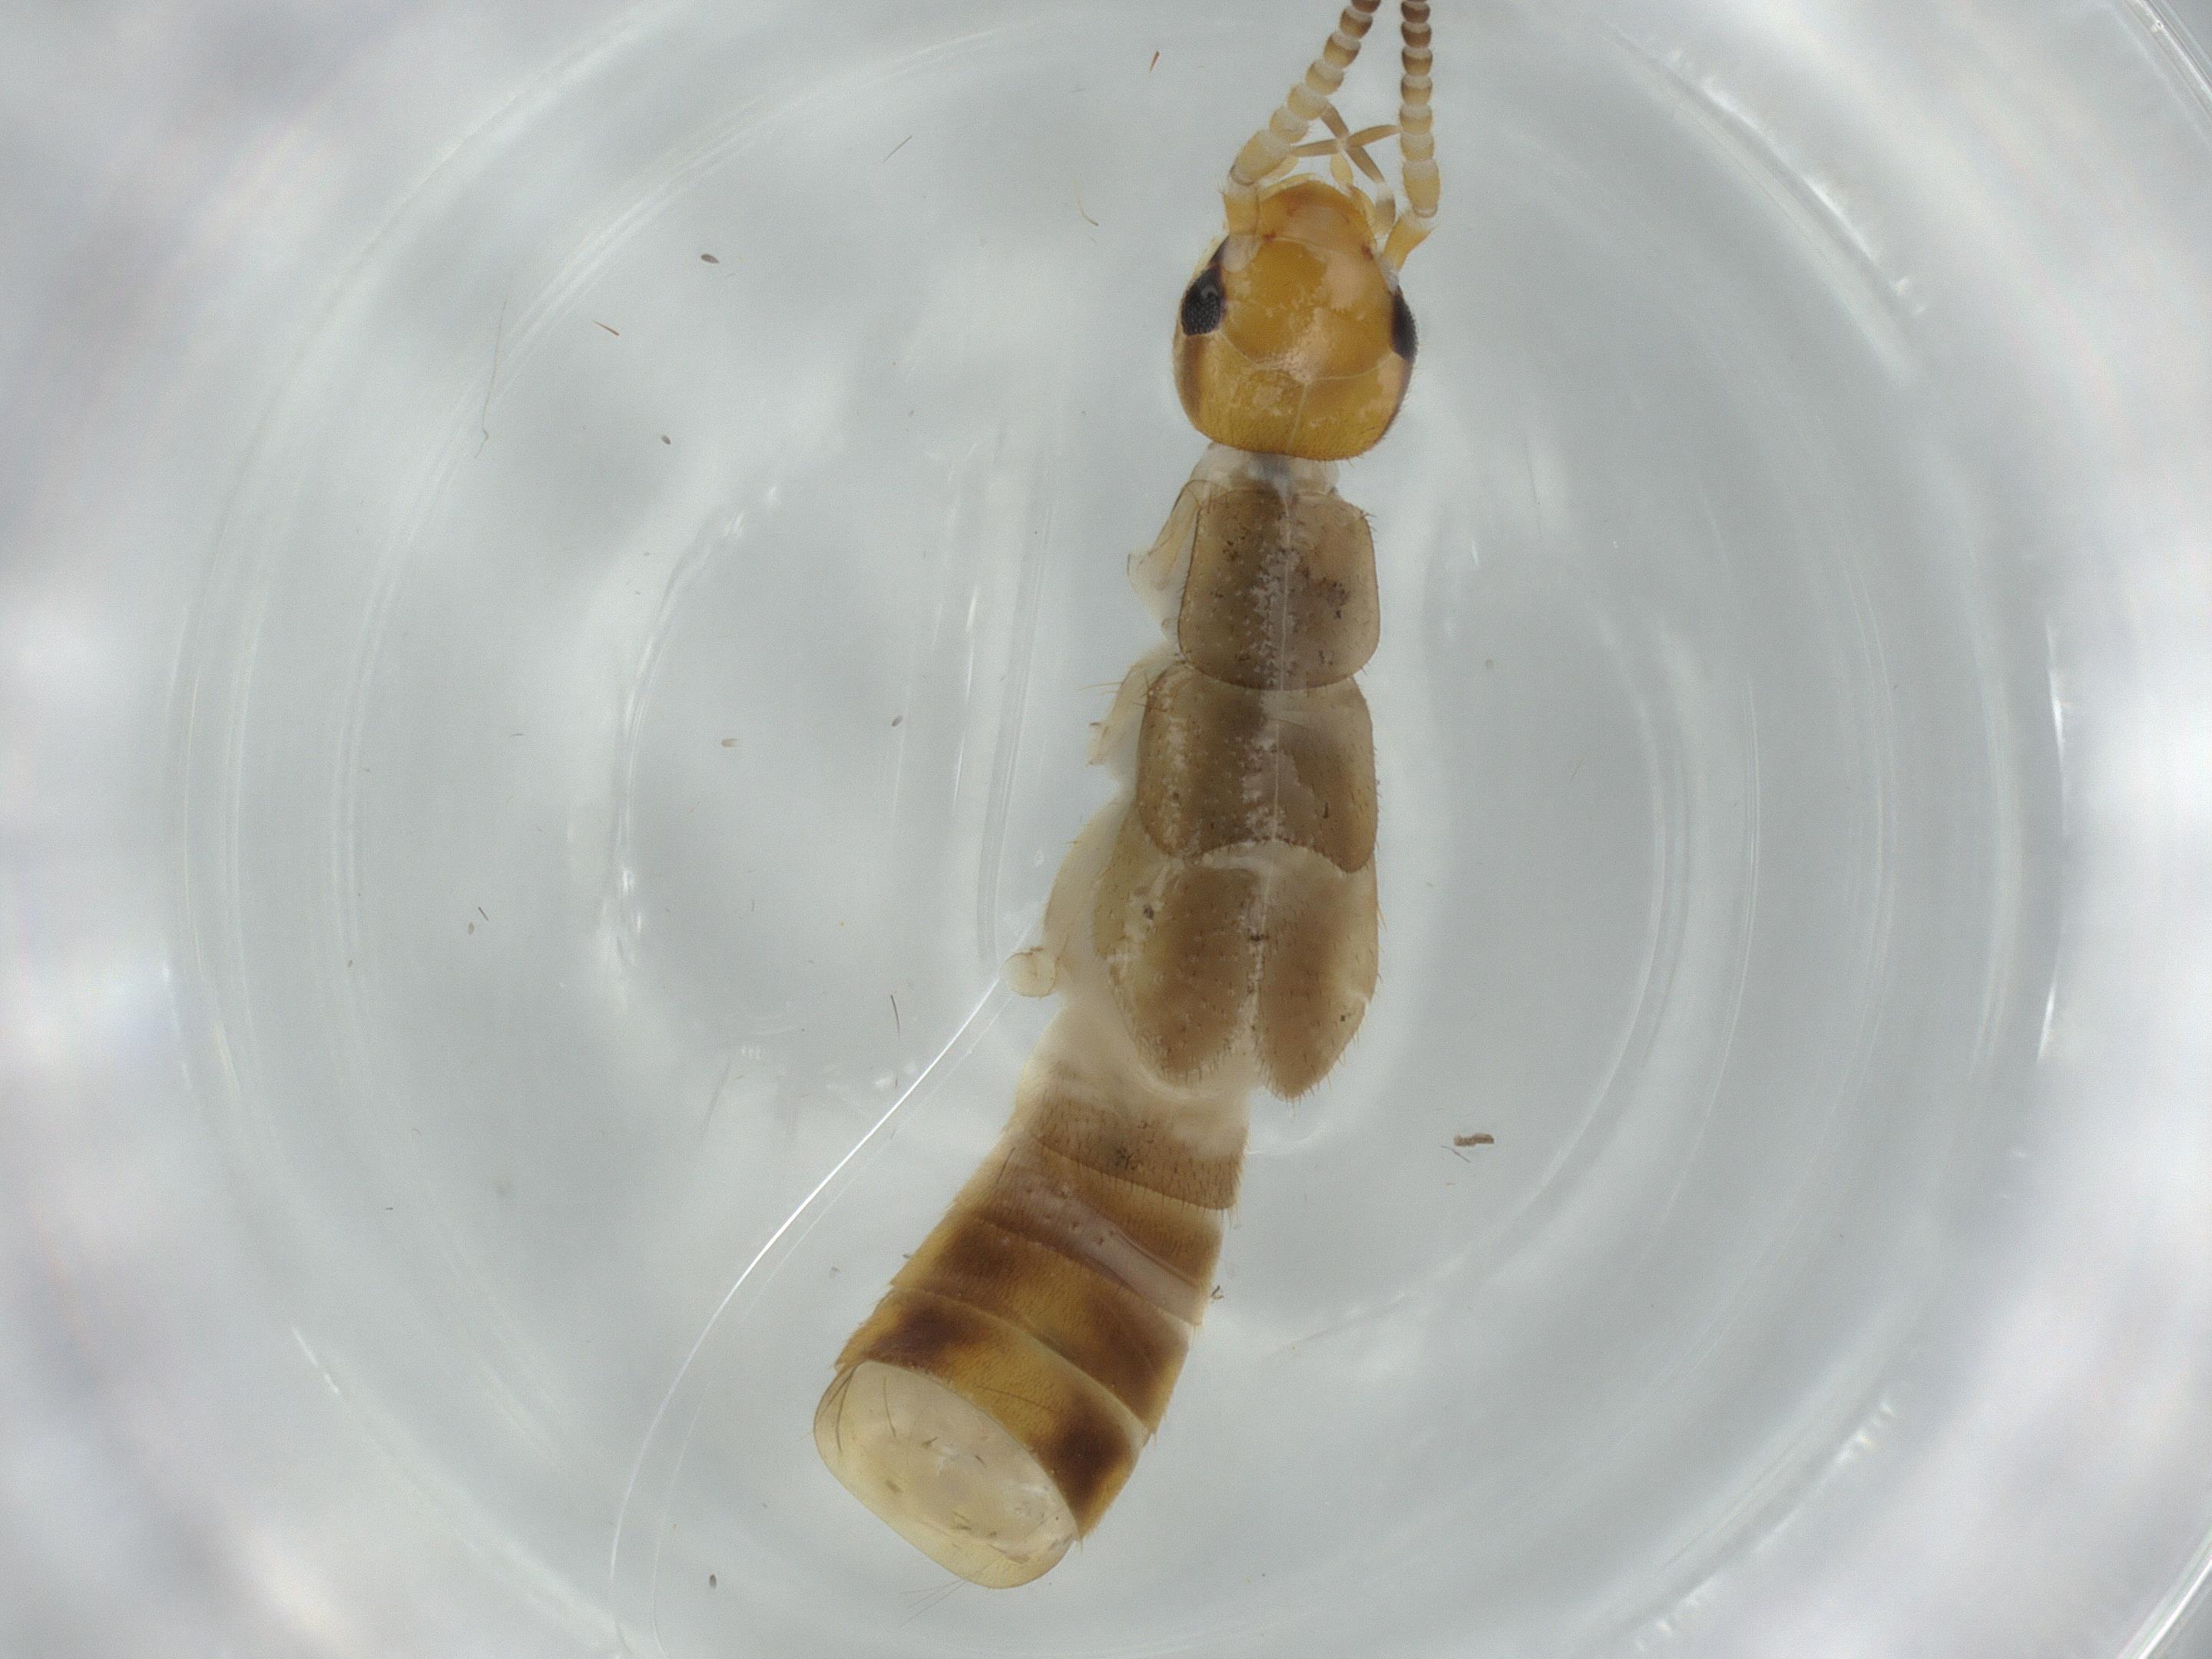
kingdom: Animalia
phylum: Arthropoda
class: Insecta
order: Dermaptera
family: Forficulidae
